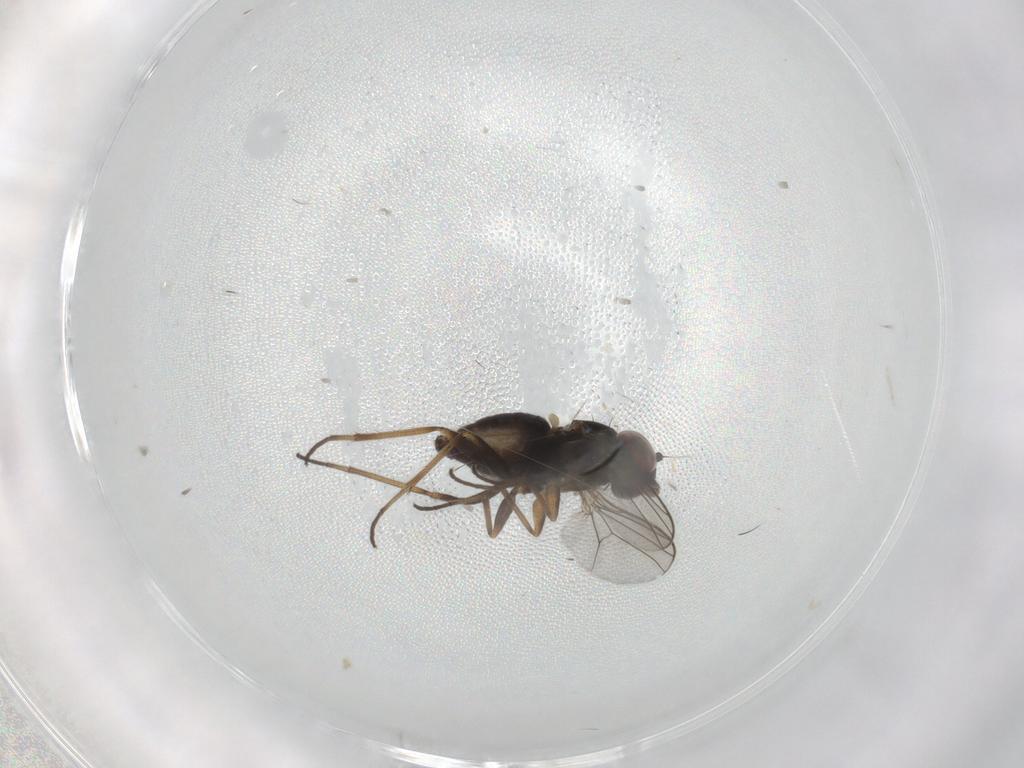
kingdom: Animalia
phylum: Arthropoda
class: Insecta
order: Diptera
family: Dolichopodidae
